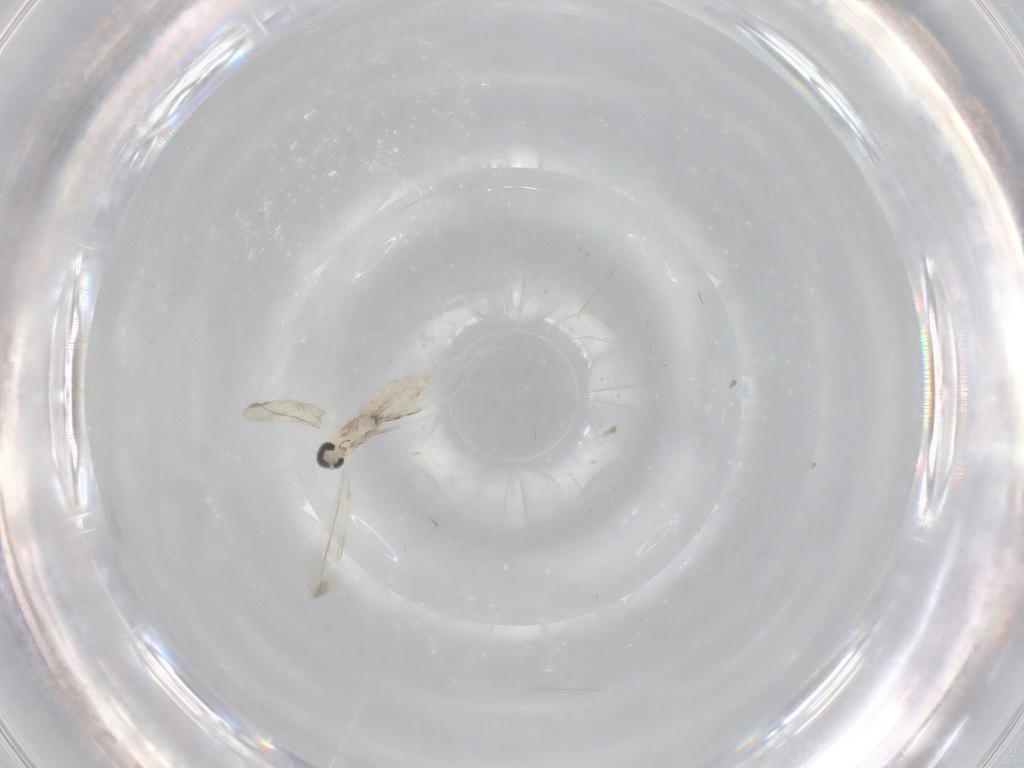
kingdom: Animalia
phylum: Arthropoda
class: Insecta
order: Diptera
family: Cecidomyiidae
